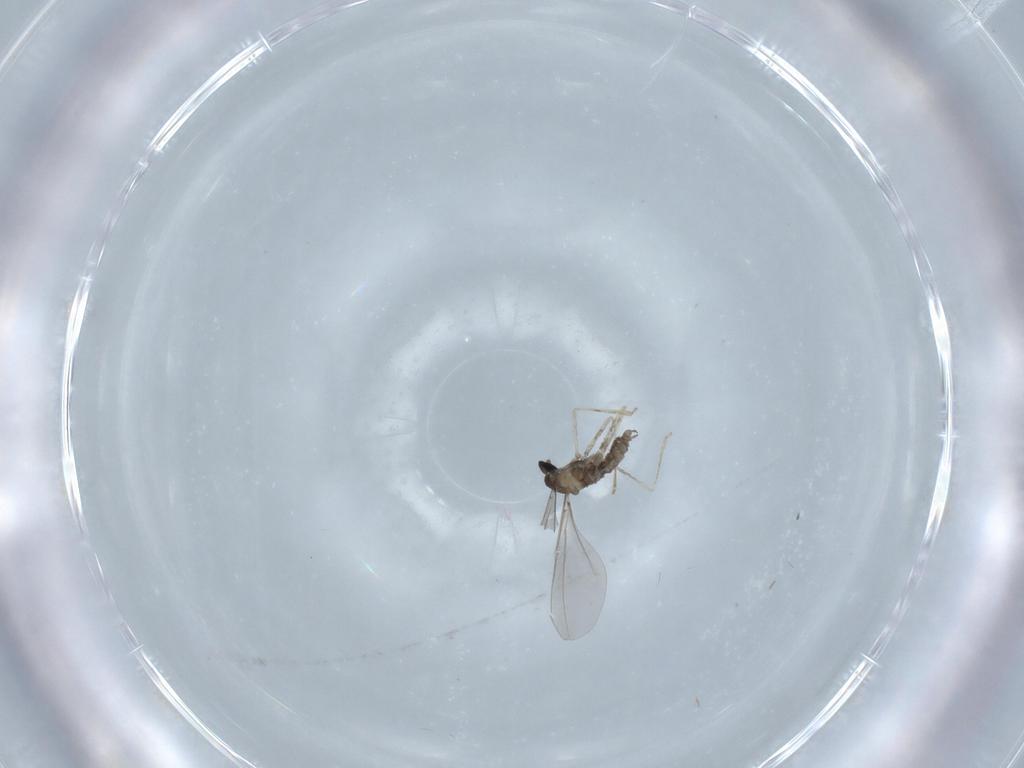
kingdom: Animalia
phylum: Arthropoda
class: Insecta
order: Diptera
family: Cecidomyiidae
